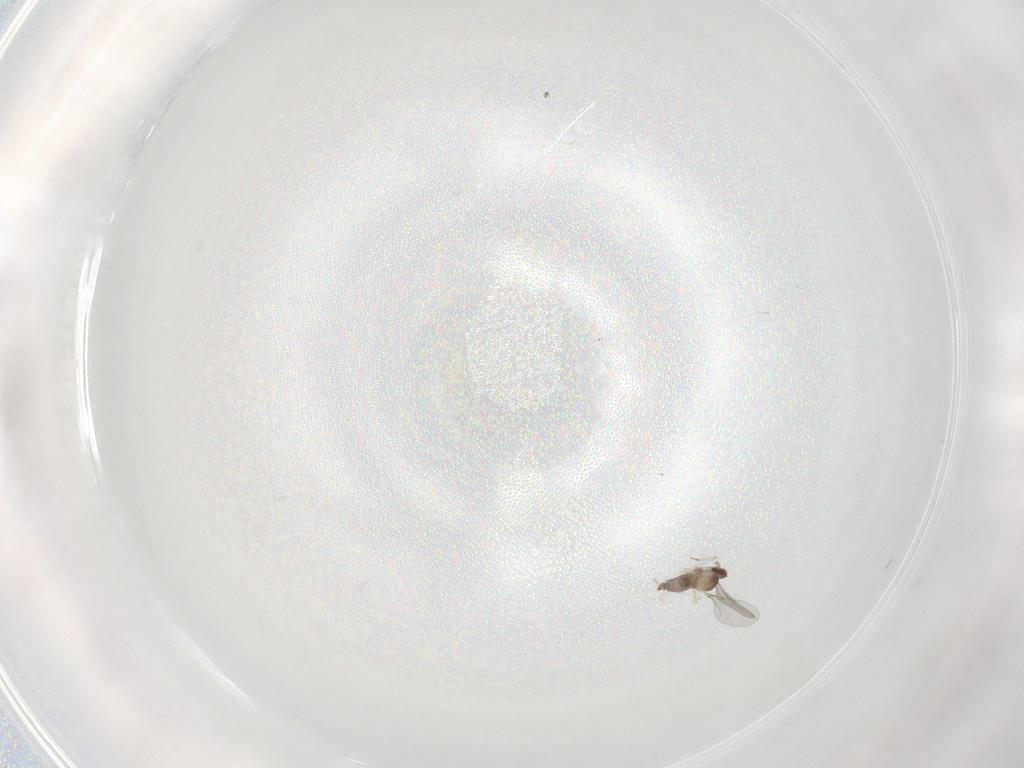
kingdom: Animalia
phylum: Arthropoda
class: Insecta
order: Diptera
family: Cecidomyiidae
